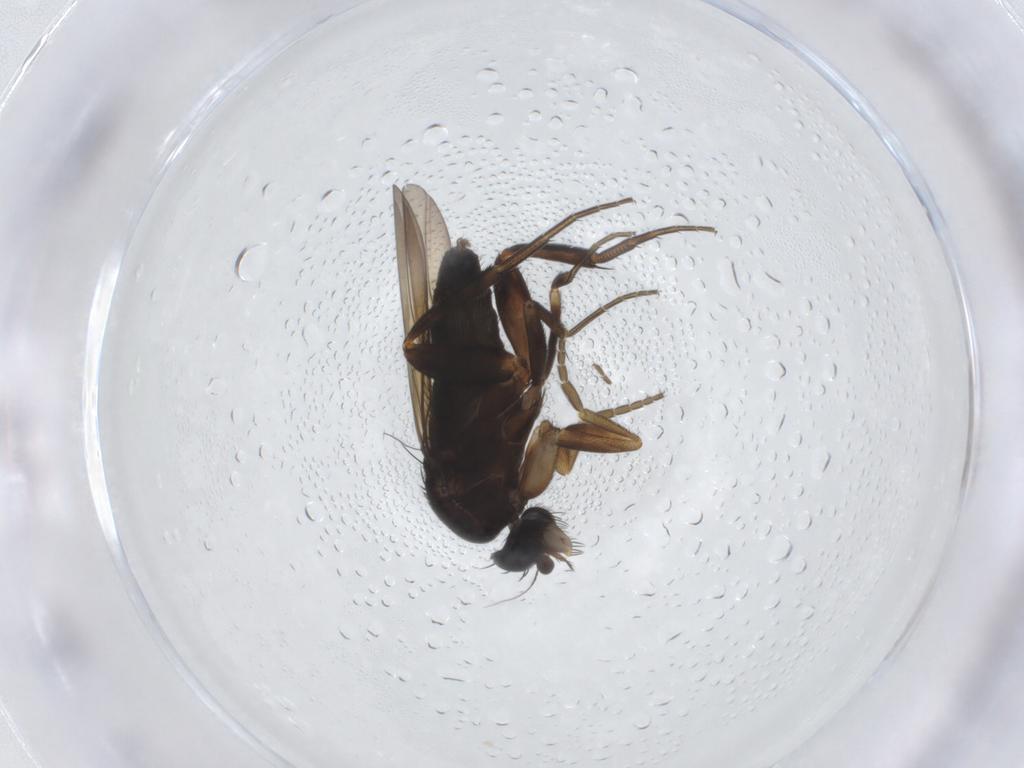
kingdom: Animalia
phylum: Arthropoda
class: Insecta
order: Diptera
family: Phoridae
